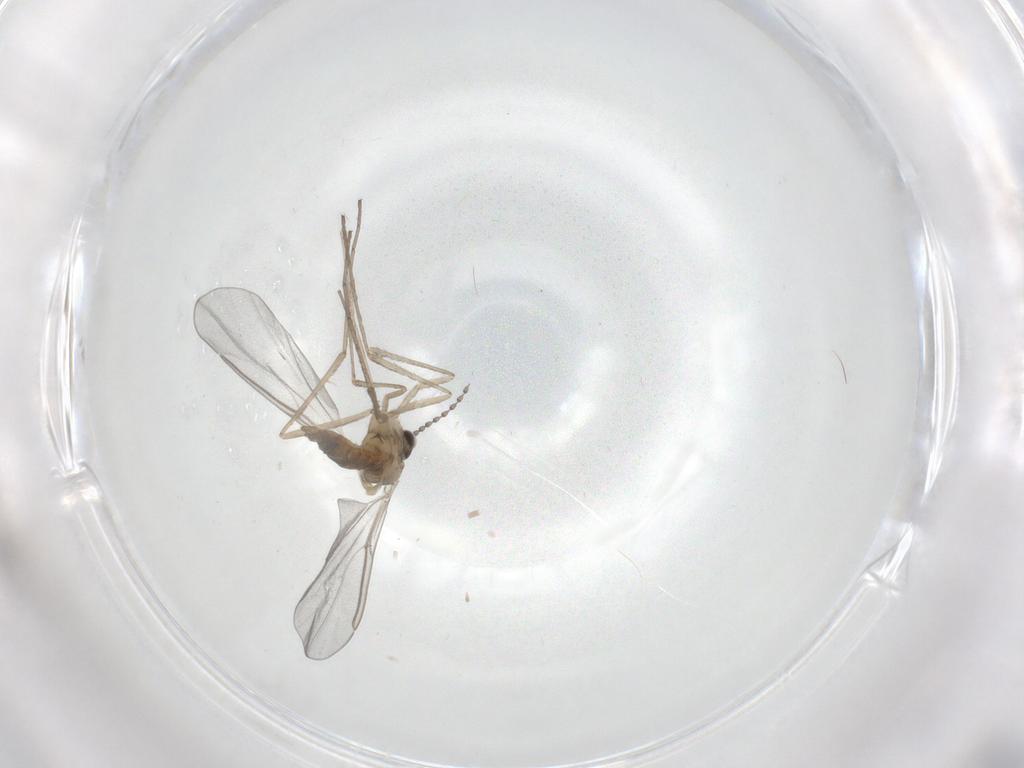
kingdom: Animalia
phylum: Arthropoda
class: Insecta
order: Diptera
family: Cecidomyiidae
